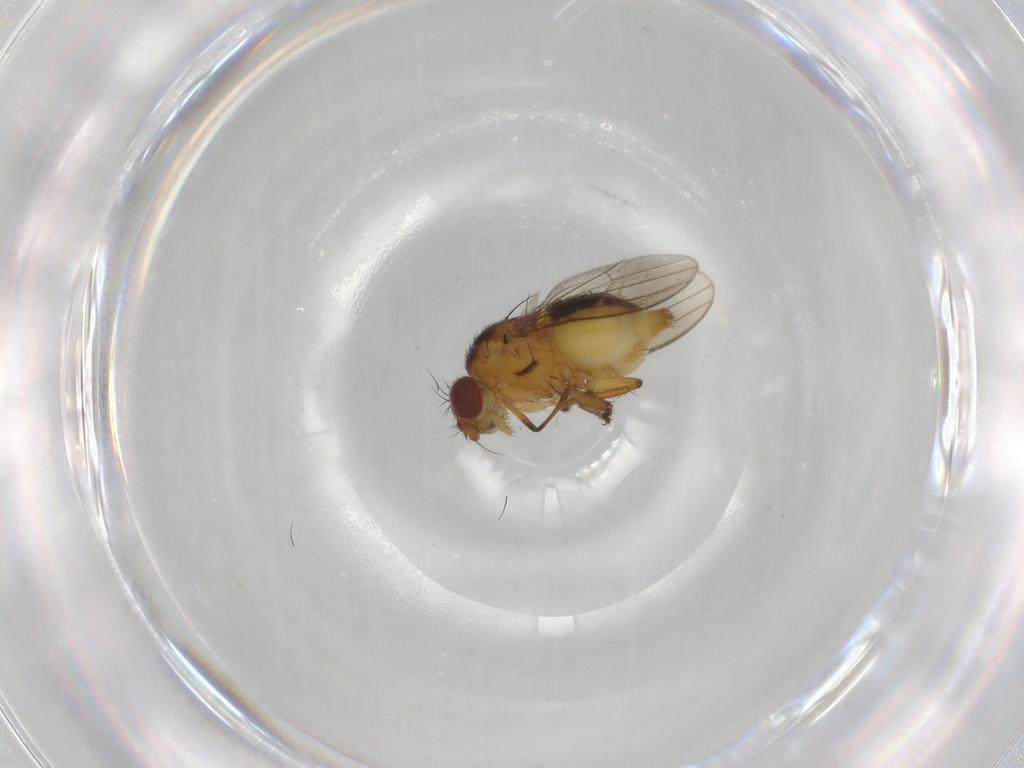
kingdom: Animalia
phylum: Arthropoda
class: Insecta
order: Diptera
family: Milichiidae
